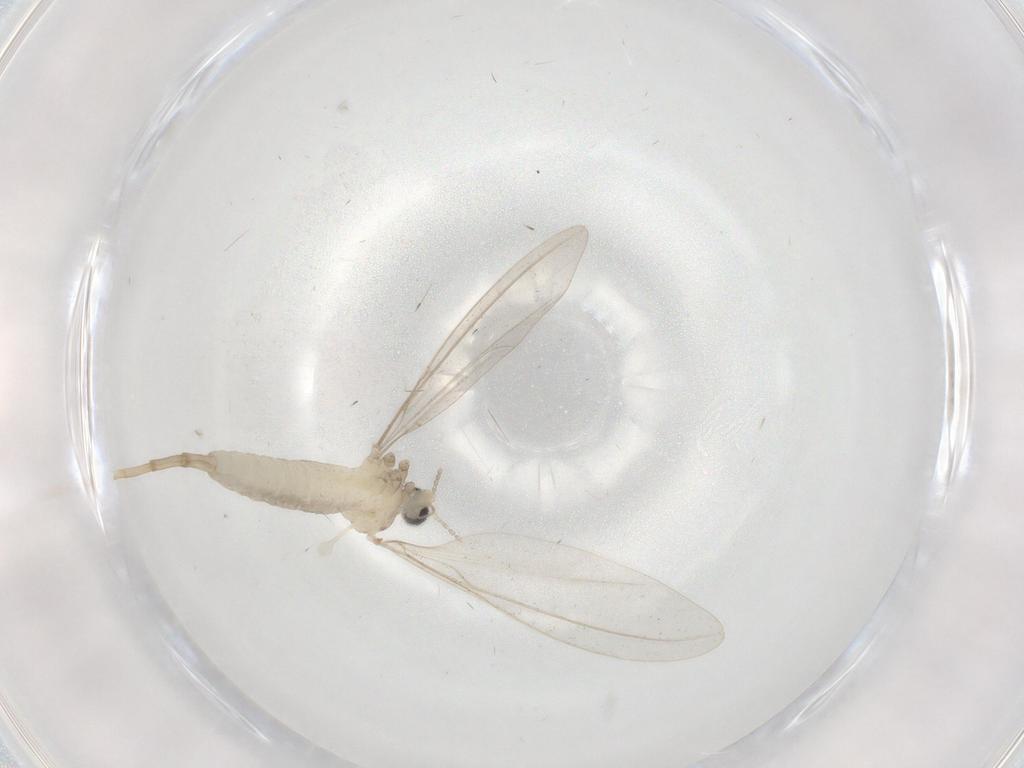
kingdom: Animalia
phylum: Arthropoda
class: Insecta
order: Diptera
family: Cecidomyiidae
